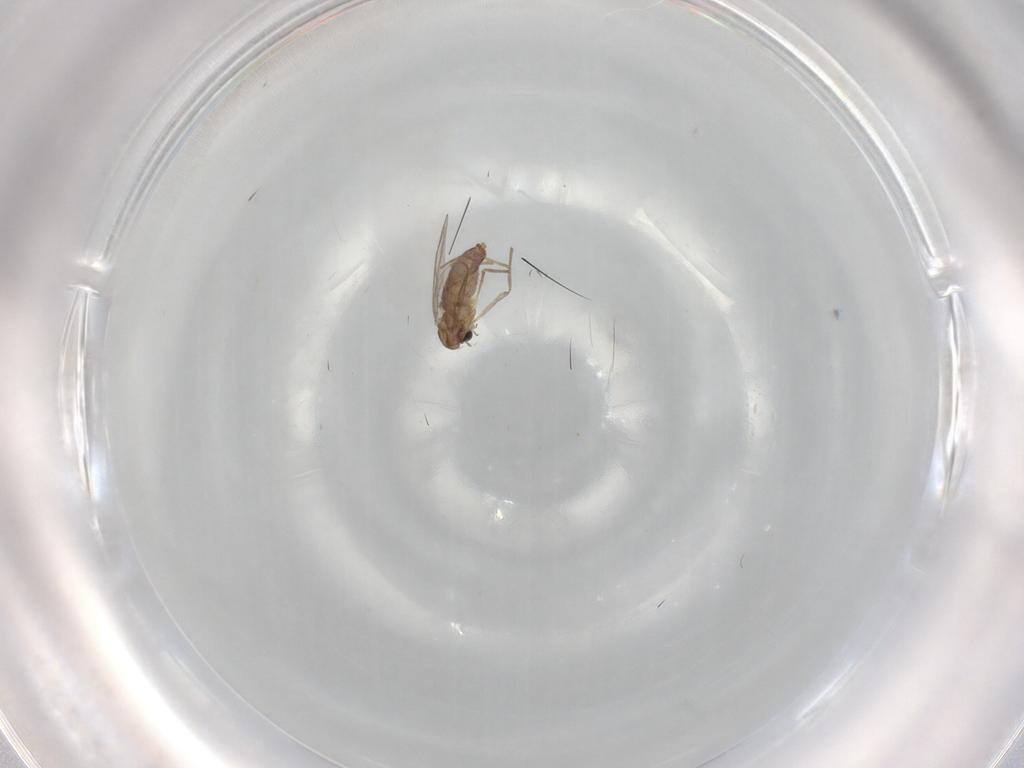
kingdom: Animalia
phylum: Arthropoda
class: Insecta
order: Diptera
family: Chironomidae
